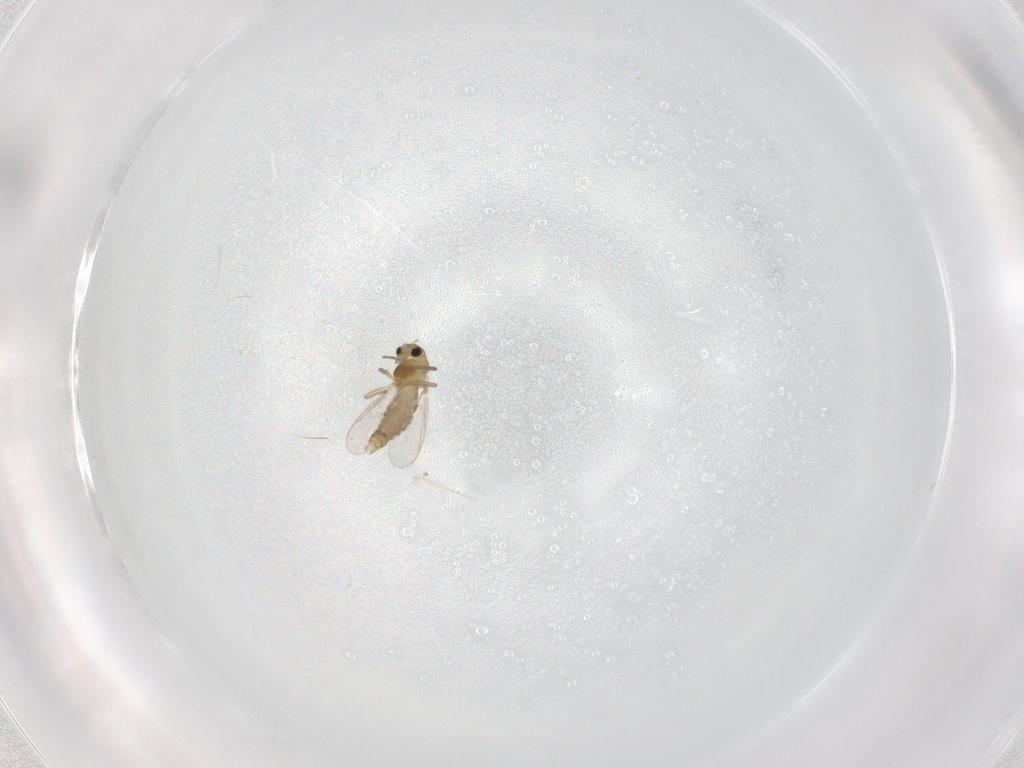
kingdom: Animalia
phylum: Arthropoda
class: Insecta
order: Diptera
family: Chironomidae
